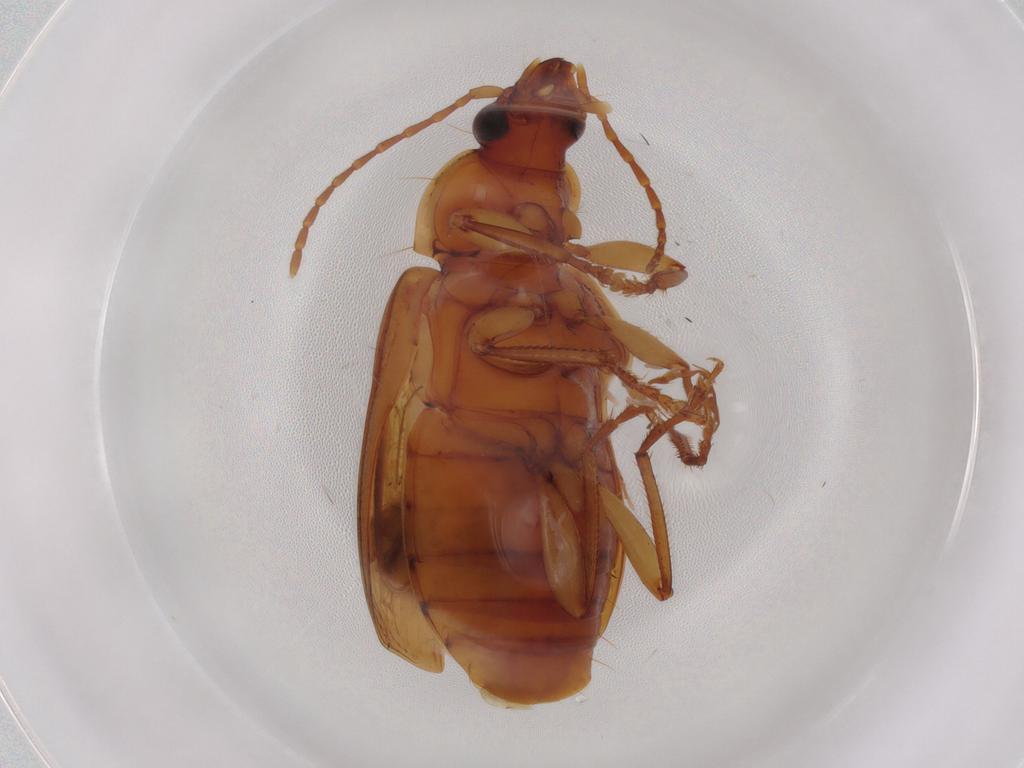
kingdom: Animalia
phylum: Arthropoda
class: Insecta
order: Coleoptera
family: Carabidae
